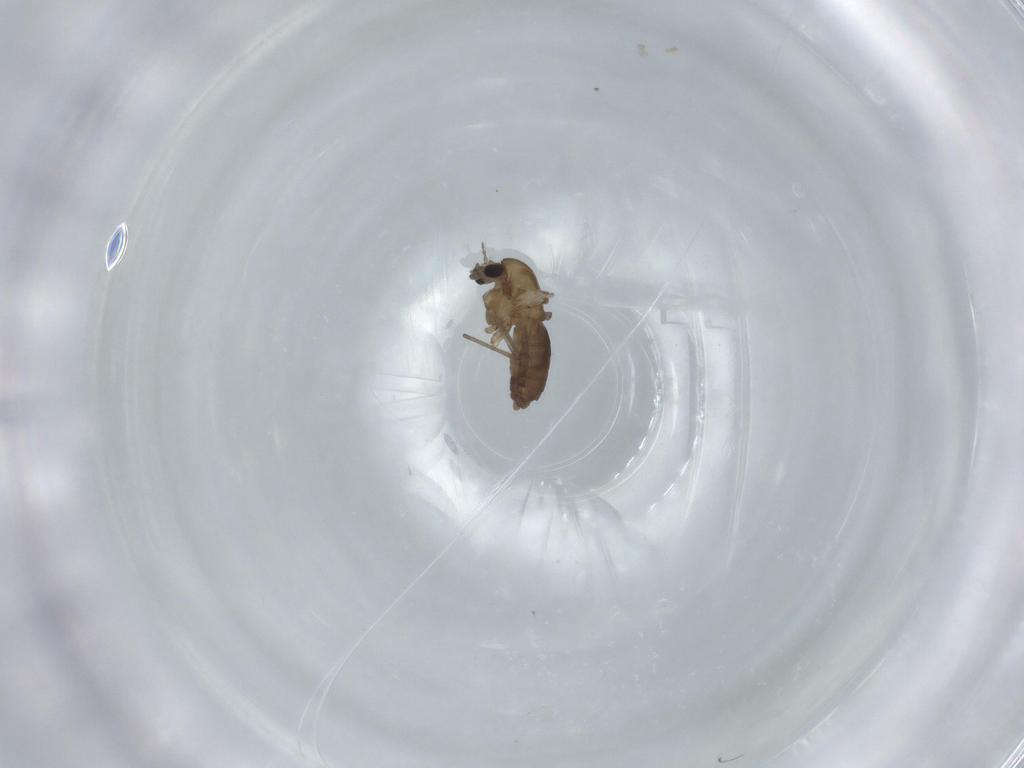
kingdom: Animalia
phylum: Arthropoda
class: Insecta
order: Diptera
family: Chironomidae
